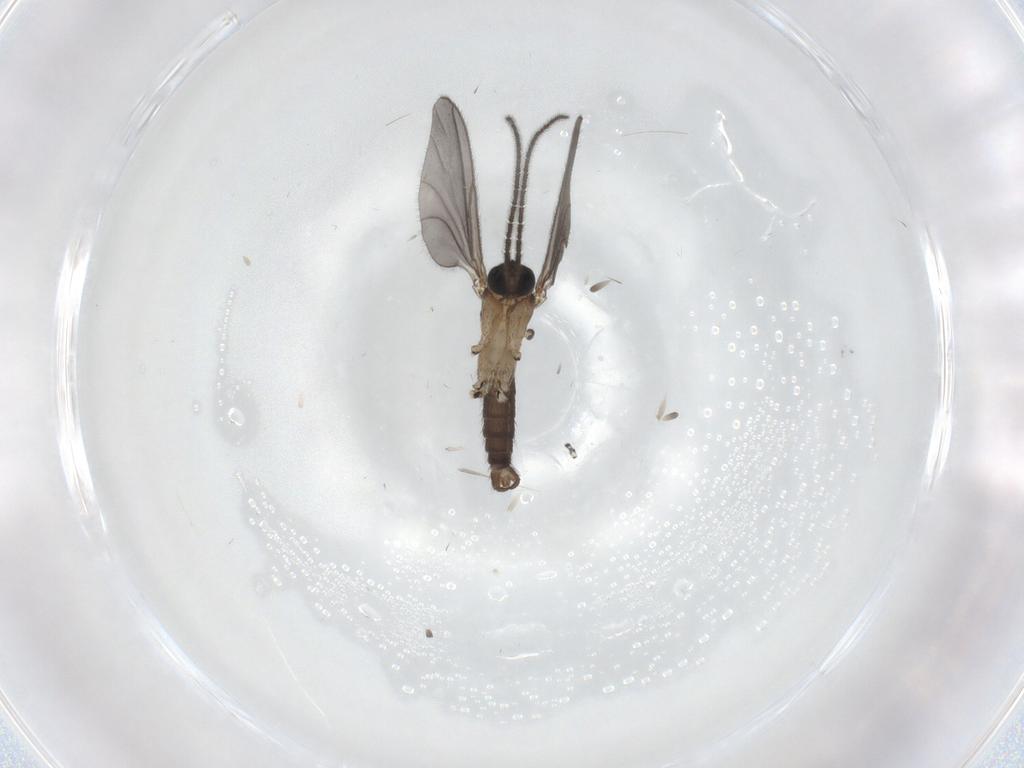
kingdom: Animalia
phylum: Arthropoda
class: Insecta
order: Diptera
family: Sciaridae
